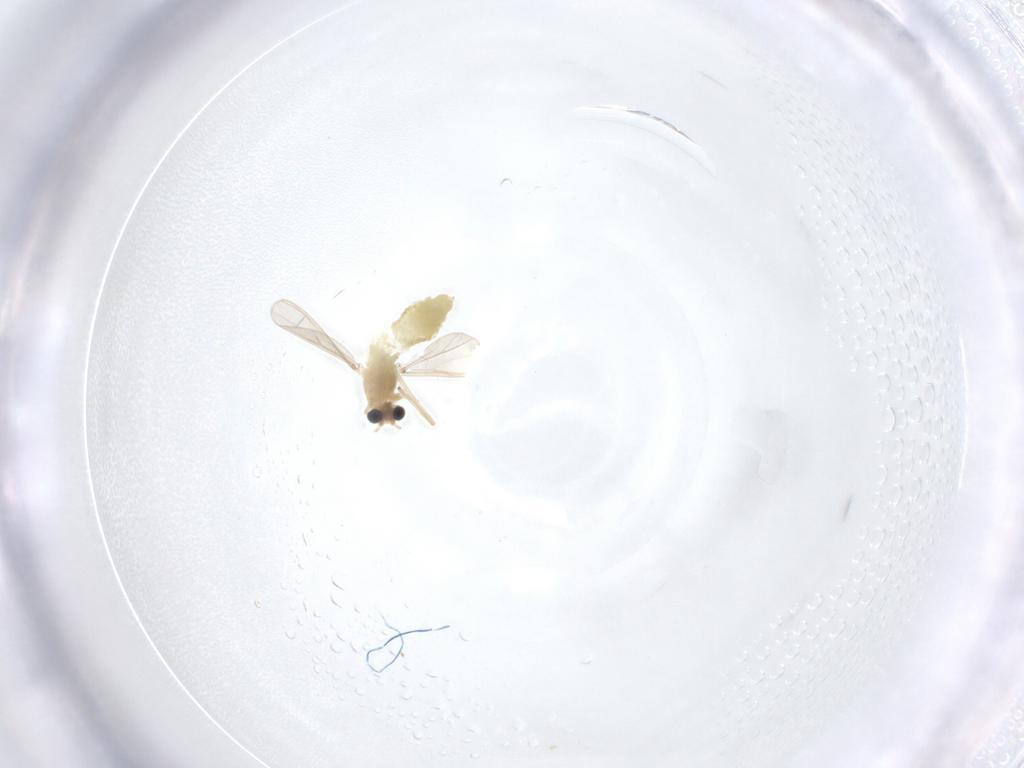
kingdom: Animalia
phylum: Arthropoda
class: Insecta
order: Diptera
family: Chironomidae
